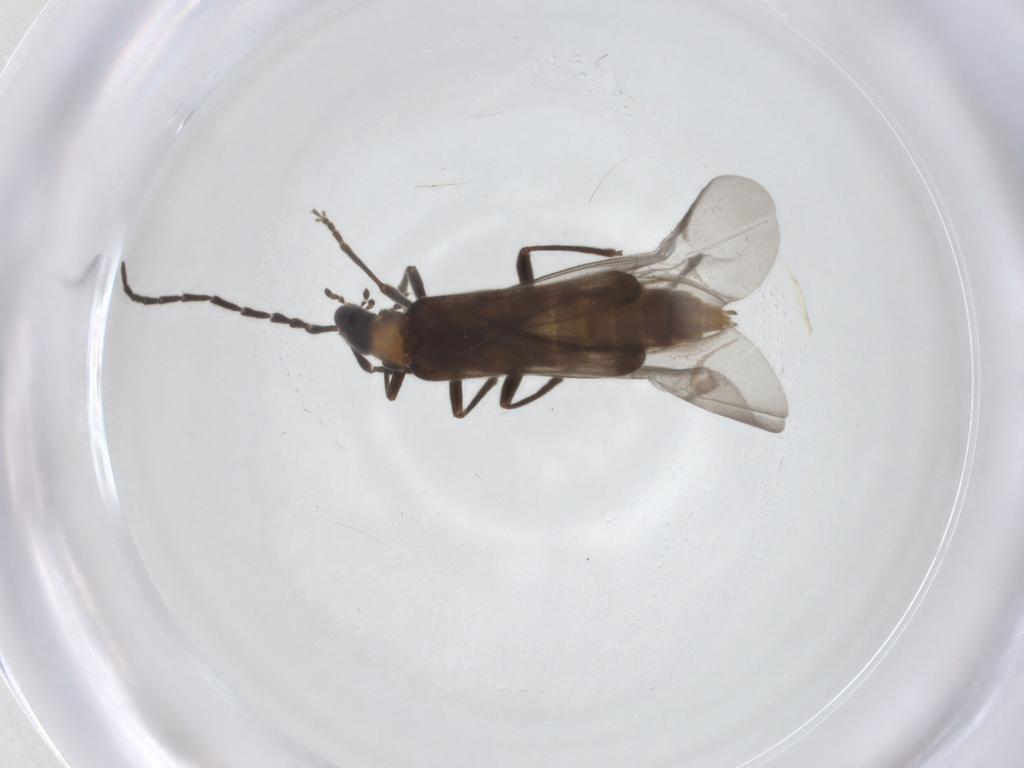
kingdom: Animalia
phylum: Arthropoda
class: Insecta
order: Coleoptera
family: Cantharidae
